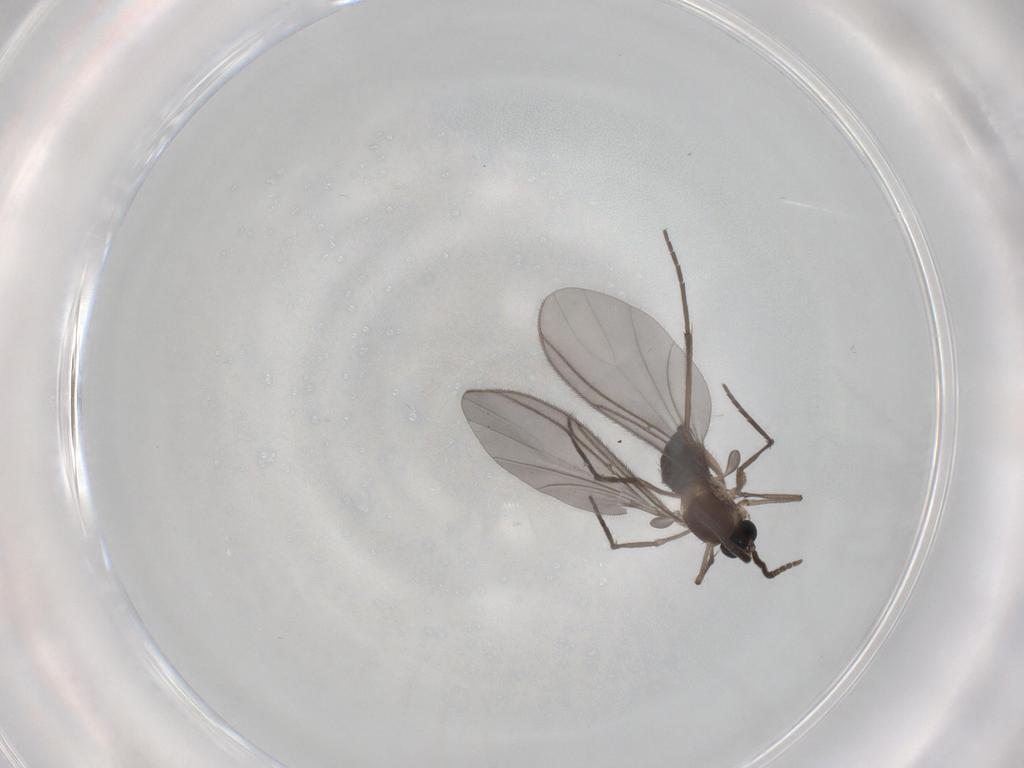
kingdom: Animalia
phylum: Arthropoda
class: Insecta
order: Diptera
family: Chironomidae
